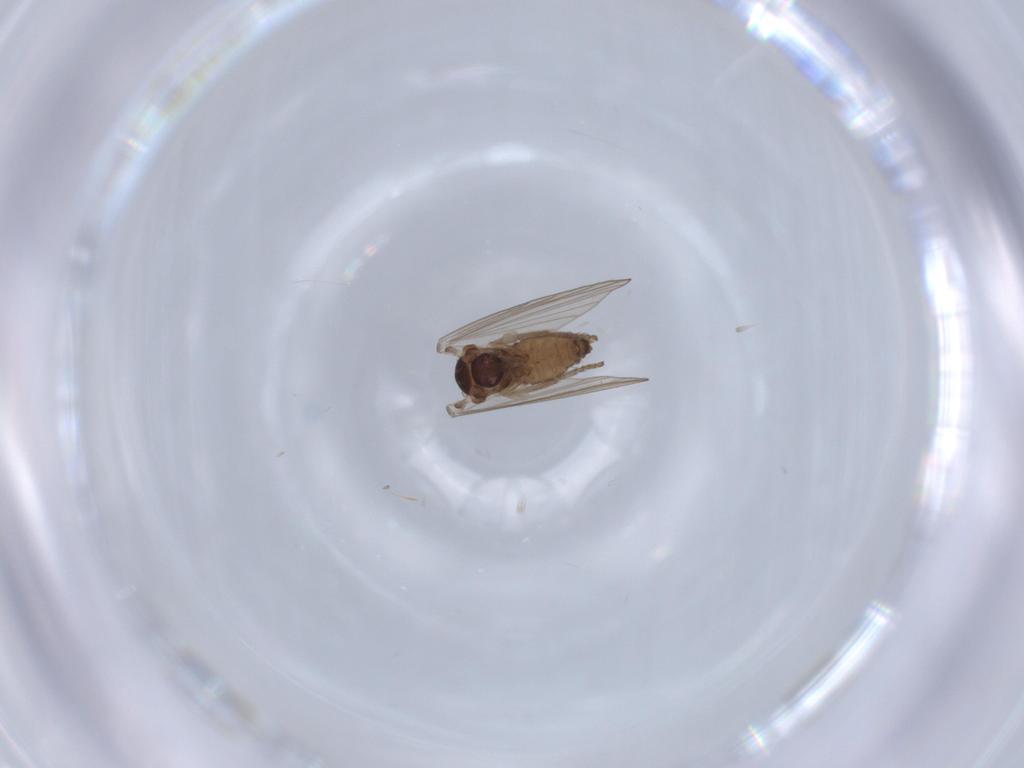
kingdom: Animalia
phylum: Arthropoda
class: Insecta
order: Diptera
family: Psychodidae
